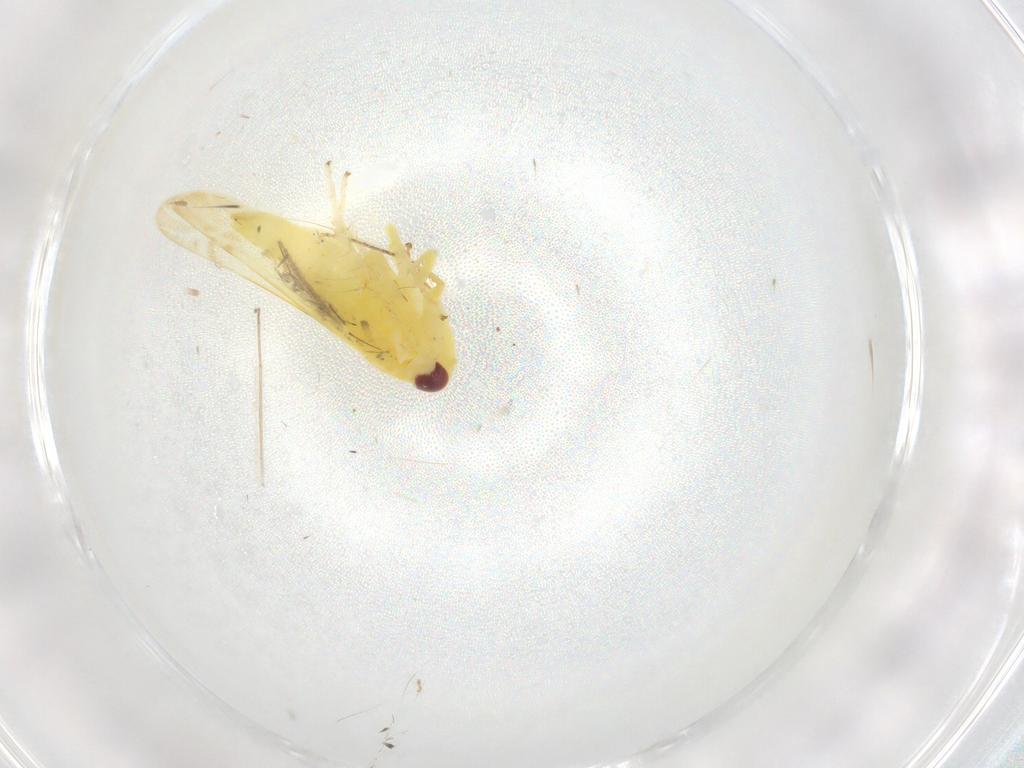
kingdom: Animalia
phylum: Arthropoda
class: Insecta
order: Hemiptera
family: Cicadellidae
